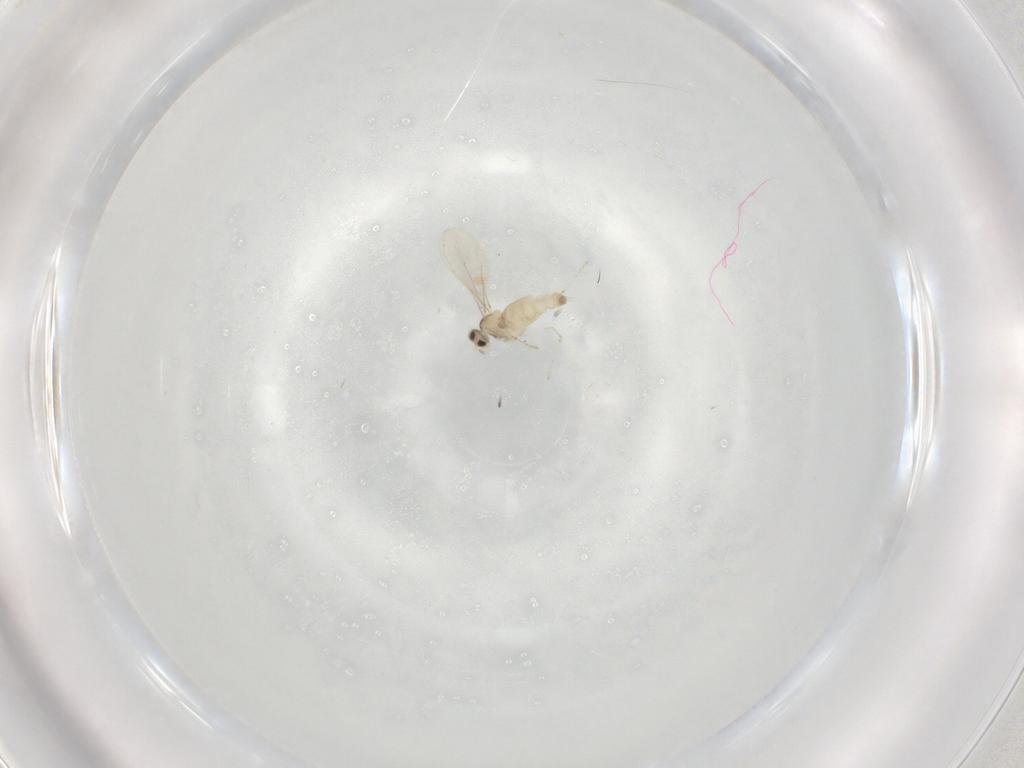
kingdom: Animalia
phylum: Arthropoda
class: Insecta
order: Diptera
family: Cecidomyiidae
